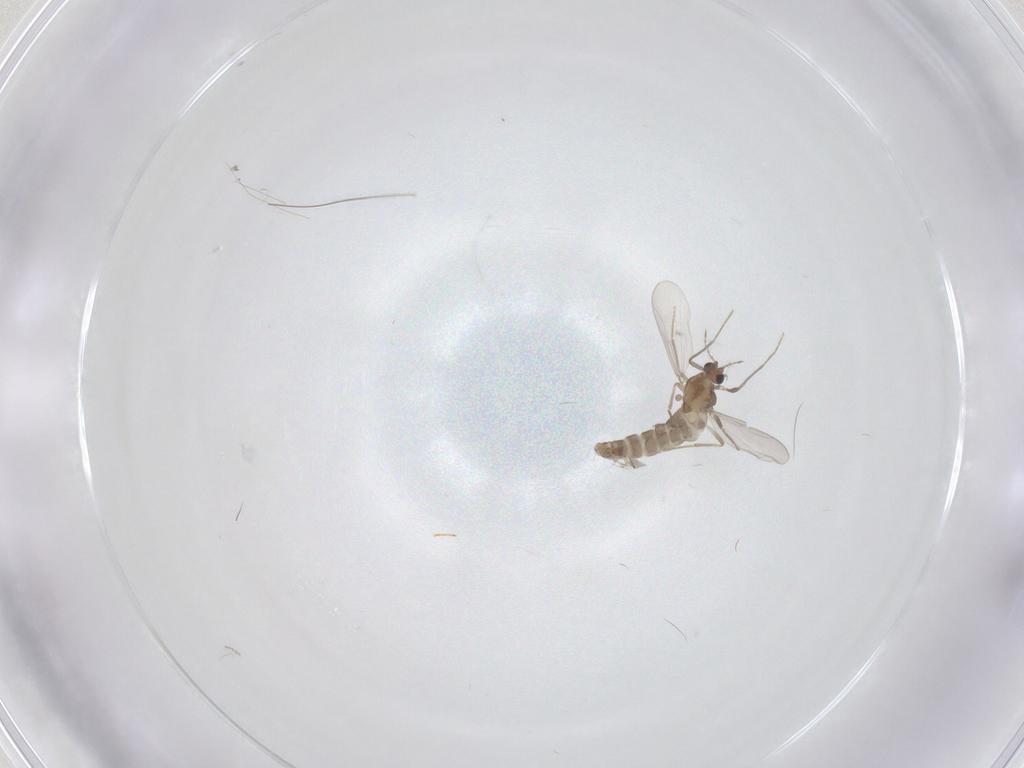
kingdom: Animalia
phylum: Arthropoda
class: Insecta
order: Diptera
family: Chironomidae
